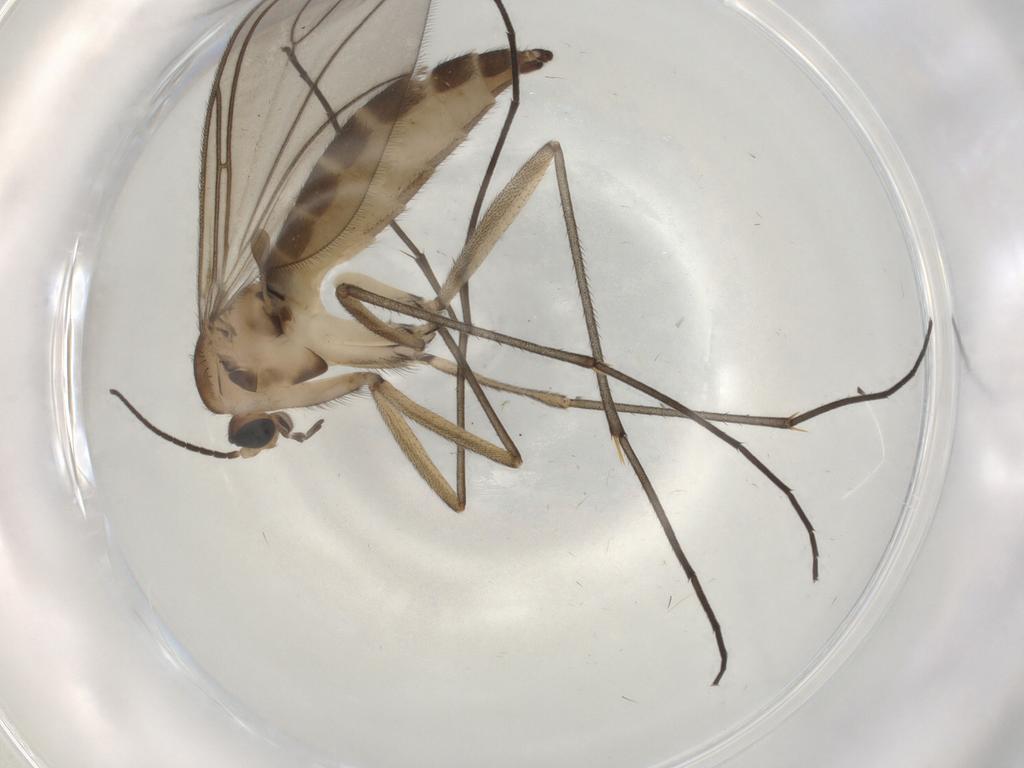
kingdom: Animalia
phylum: Arthropoda
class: Insecta
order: Diptera
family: Sciaridae
